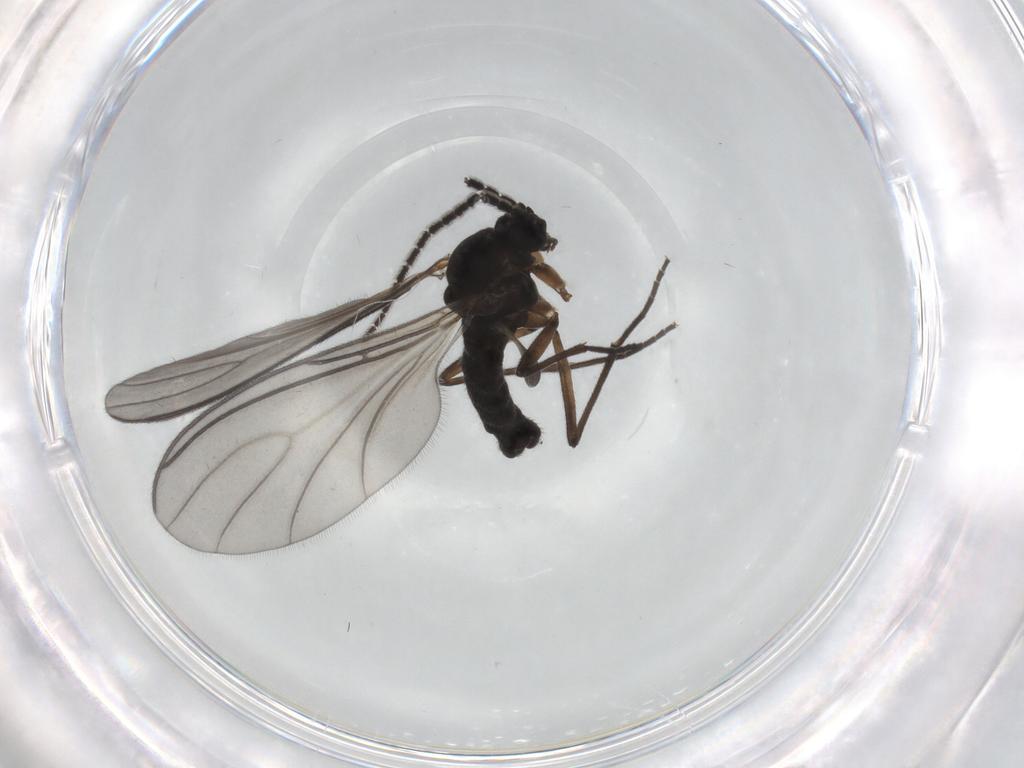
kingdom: Animalia
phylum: Arthropoda
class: Insecta
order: Diptera
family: Sciaridae
